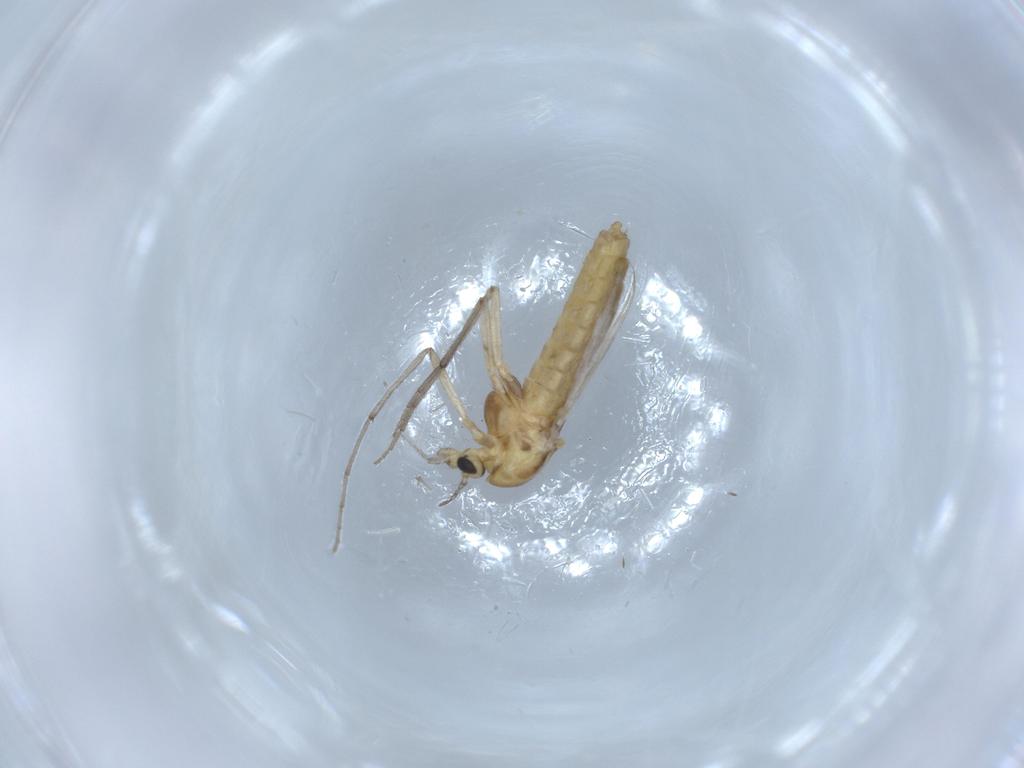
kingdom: Animalia
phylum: Arthropoda
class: Insecta
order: Diptera
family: Chironomidae
